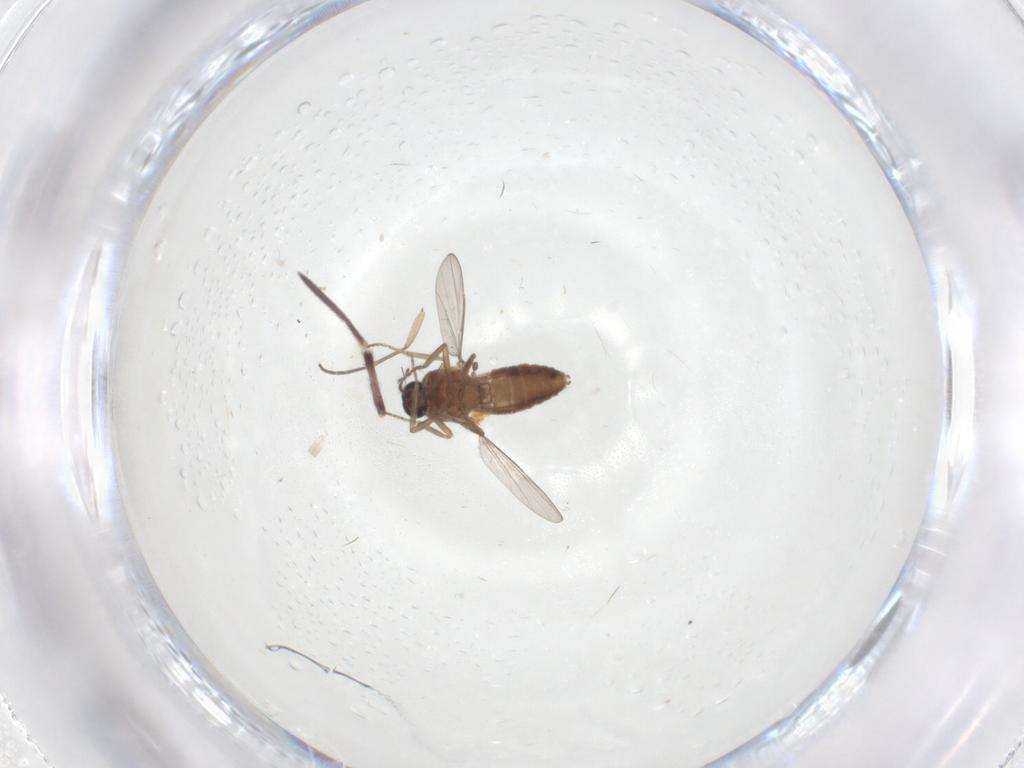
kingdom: Animalia
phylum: Arthropoda
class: Insecta
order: Diptera
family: Ceratopogonidae
